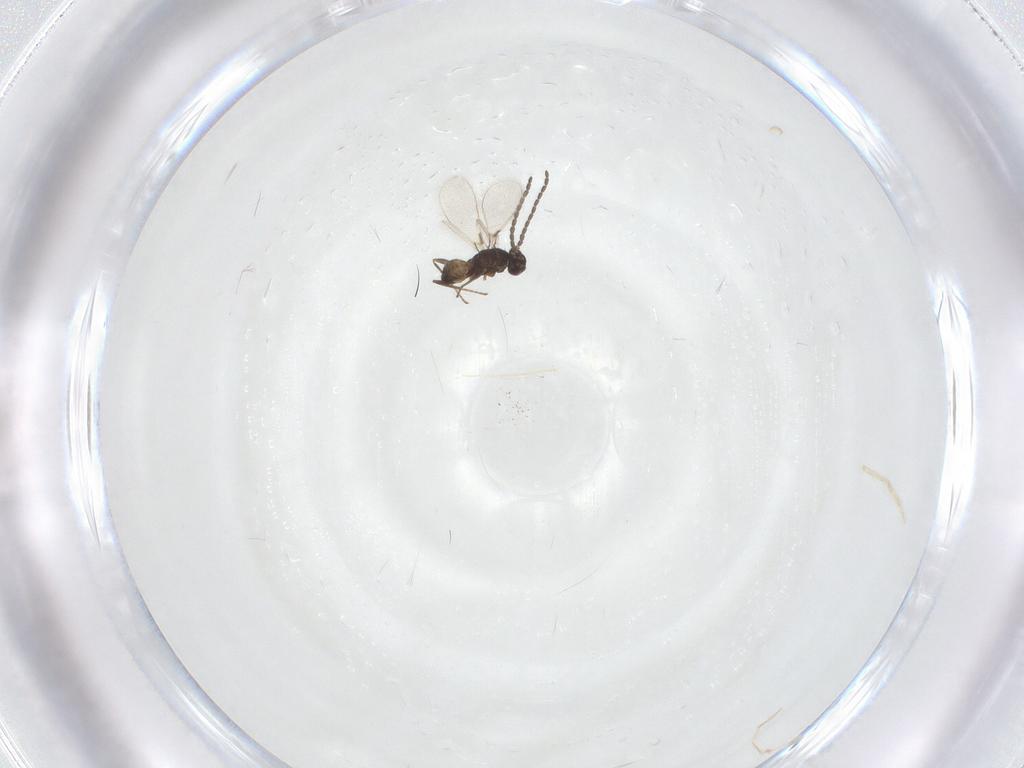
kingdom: Animalia
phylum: Arthropoda
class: Insecta
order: Hymenoptera
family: Mymaridae
